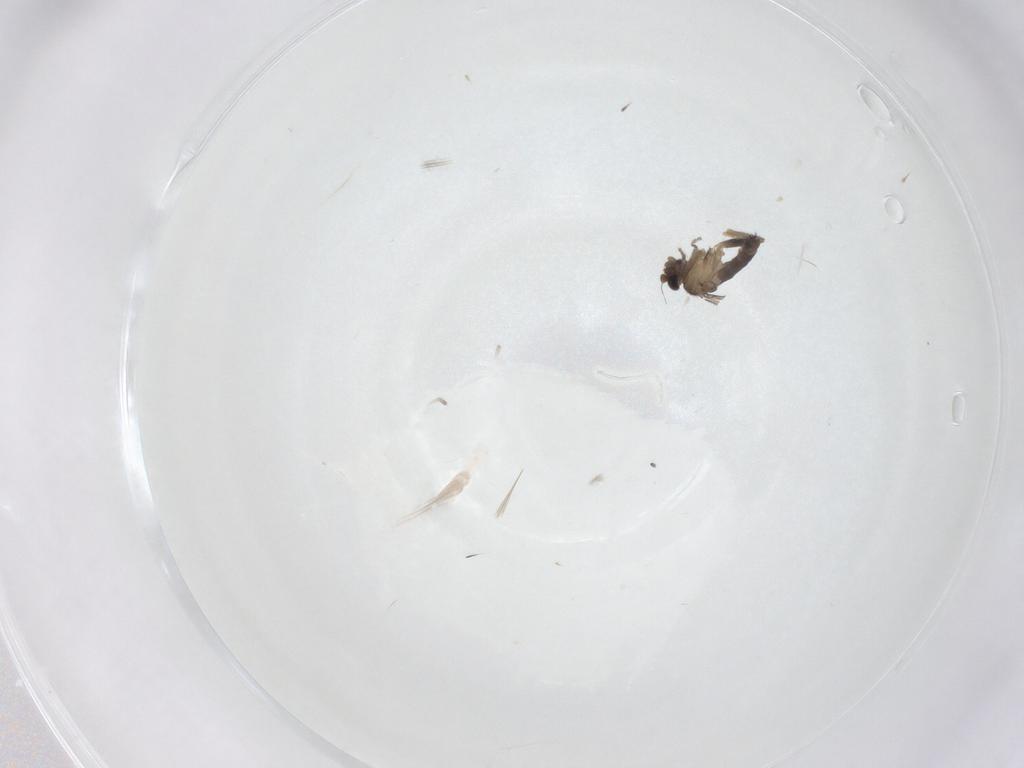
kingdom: Animalia
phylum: Arthropoda
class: Insecta
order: Diptera
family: Phoridae
